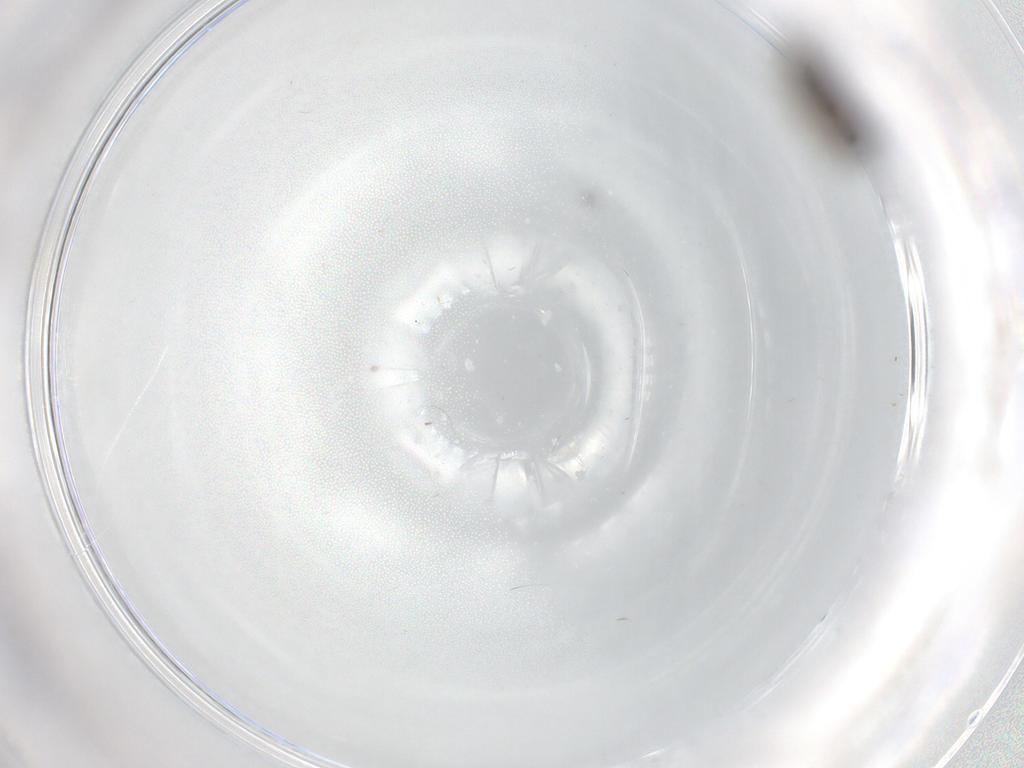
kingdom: Animalia
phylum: Arthropoda
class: Insecta
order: Diptera
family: Phoridae
